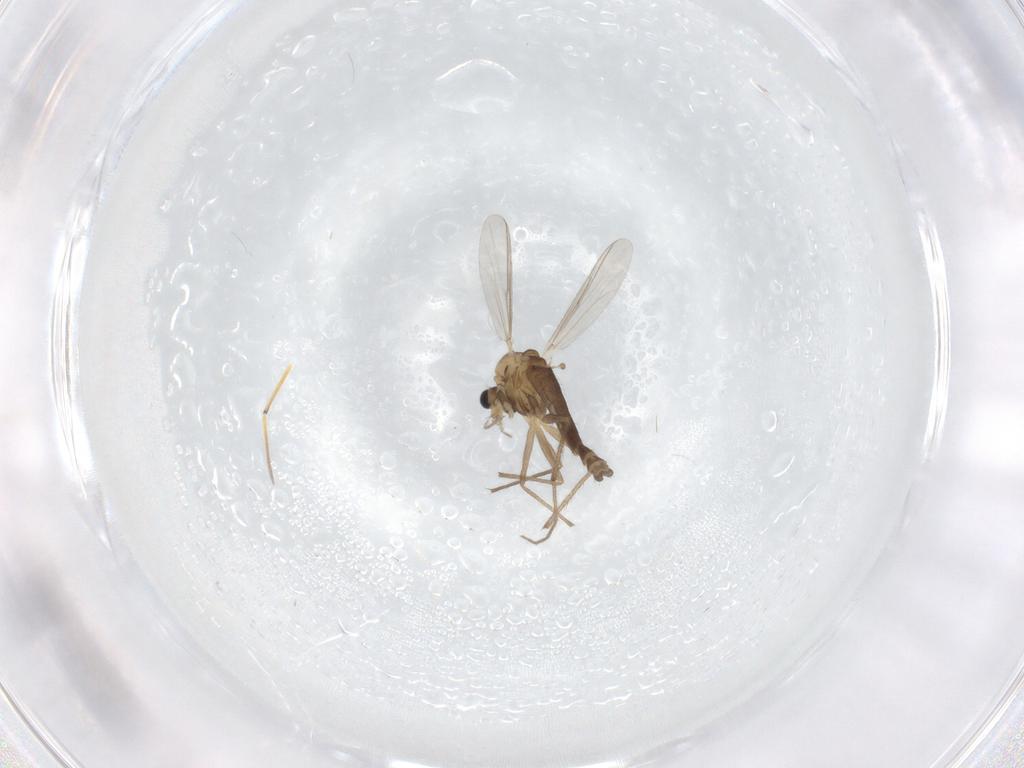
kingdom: Animalia
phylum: Arthropoda
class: Insecta
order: Diptera
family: Chironomidae
